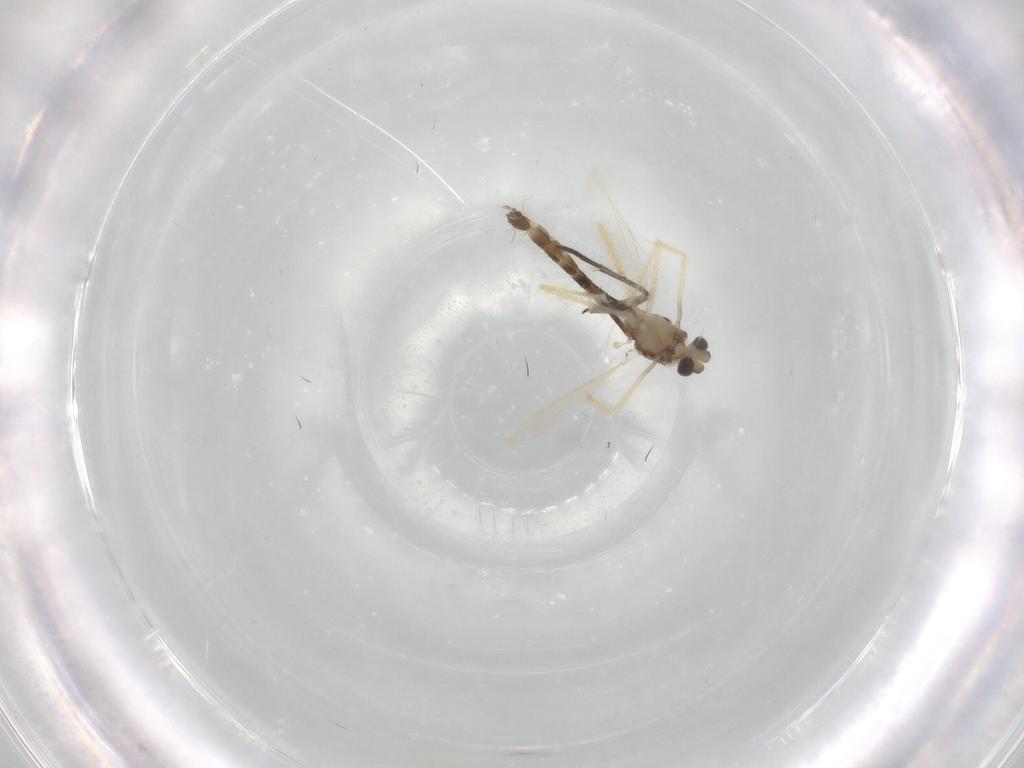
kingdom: Animalia
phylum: Arthropoda
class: Insecta
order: Diptera
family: Chironomidae
